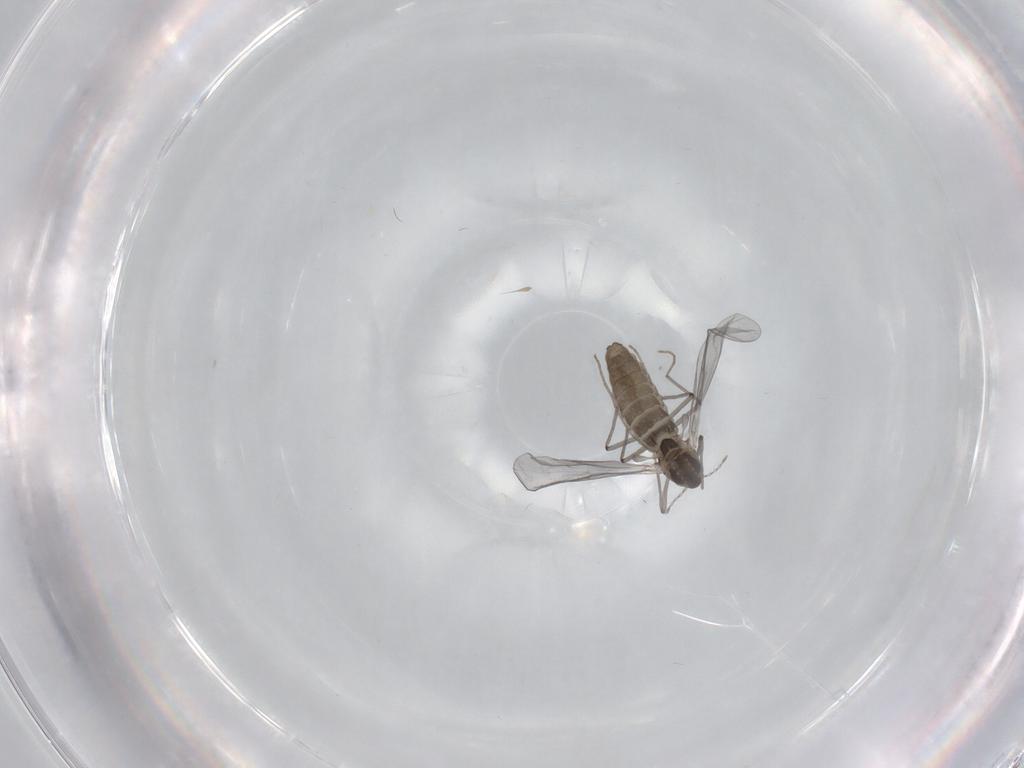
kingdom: Animalia
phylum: Arthropoda
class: Insecta
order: Diptera
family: Chironomidae
